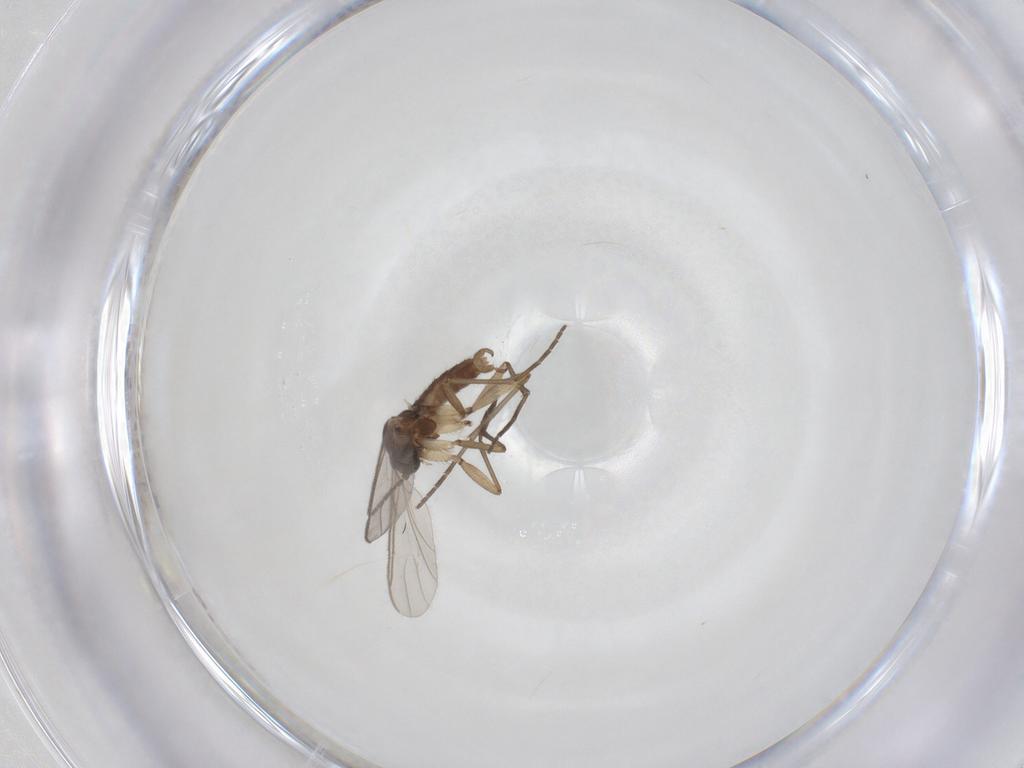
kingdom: Animalia
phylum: Arthropoda
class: Insecta
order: Diptera
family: Sciaridae
